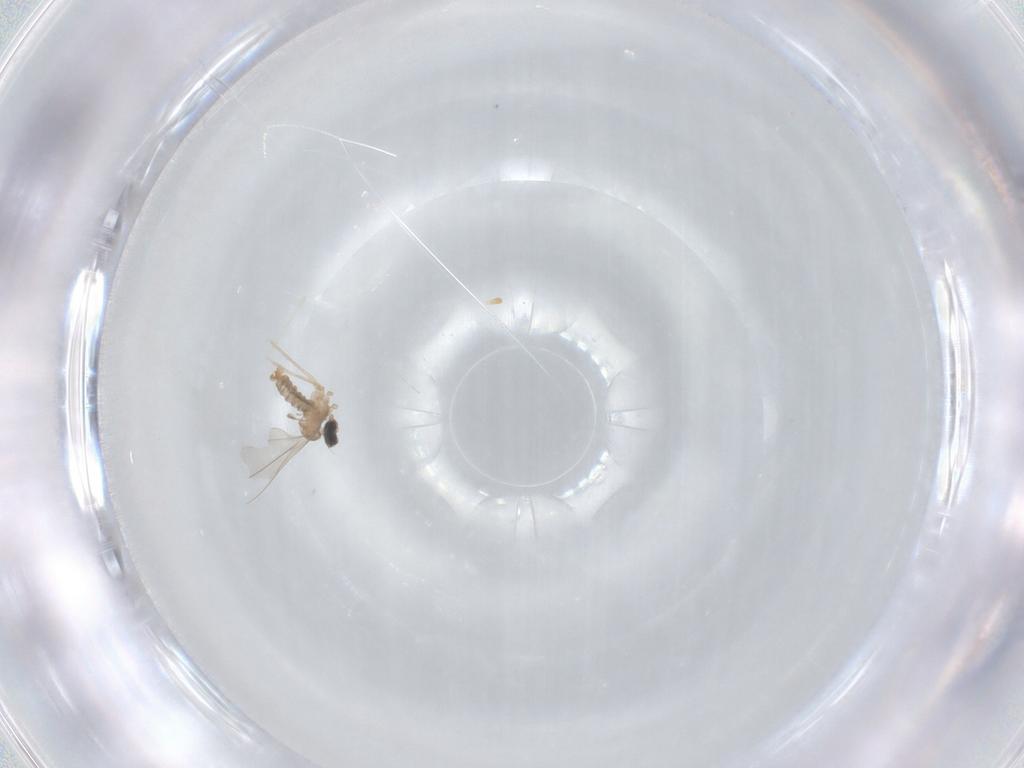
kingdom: Animalia
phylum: Arthropoda
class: Insecta
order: Diptera
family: Cecidomyiidae
